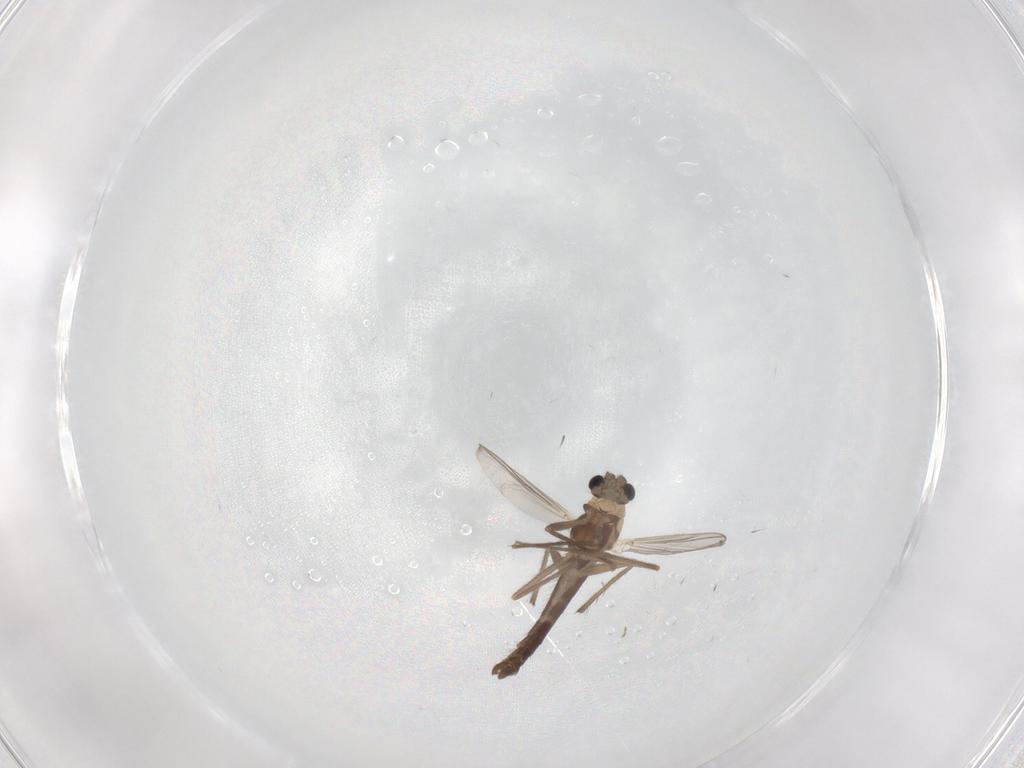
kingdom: Animalia
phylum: Arthropoda
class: Insecta
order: Diptera
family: Chironomidae
